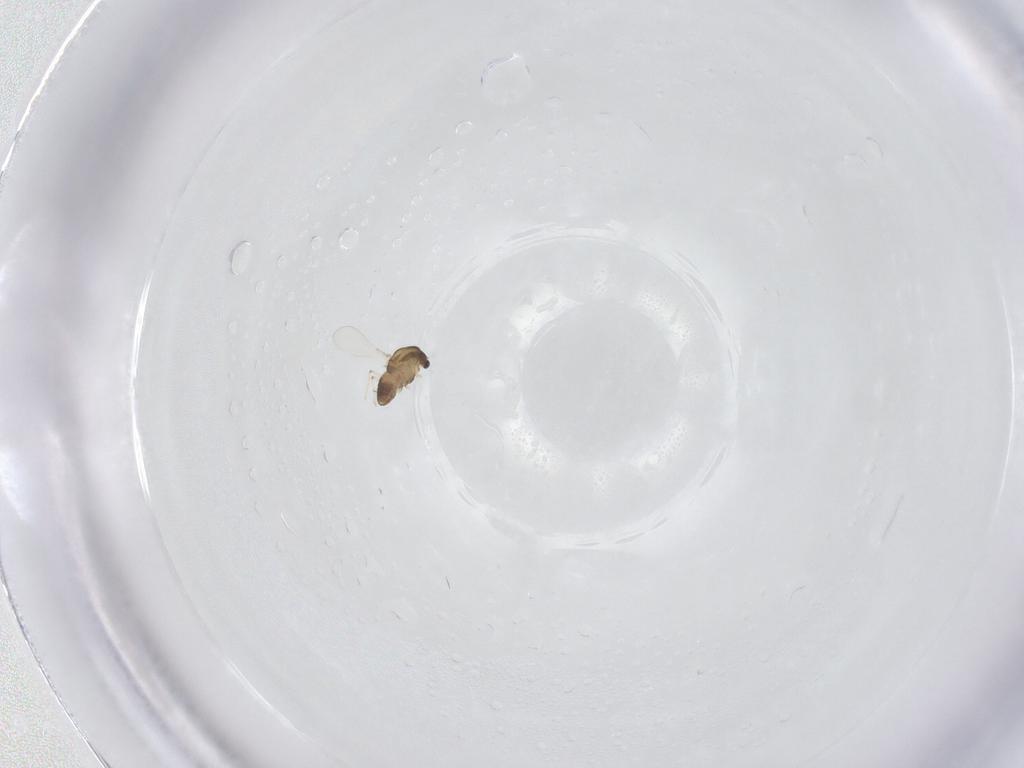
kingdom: Animalia
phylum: Arthropoda
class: Insecta
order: Diptera
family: Chironomidae
